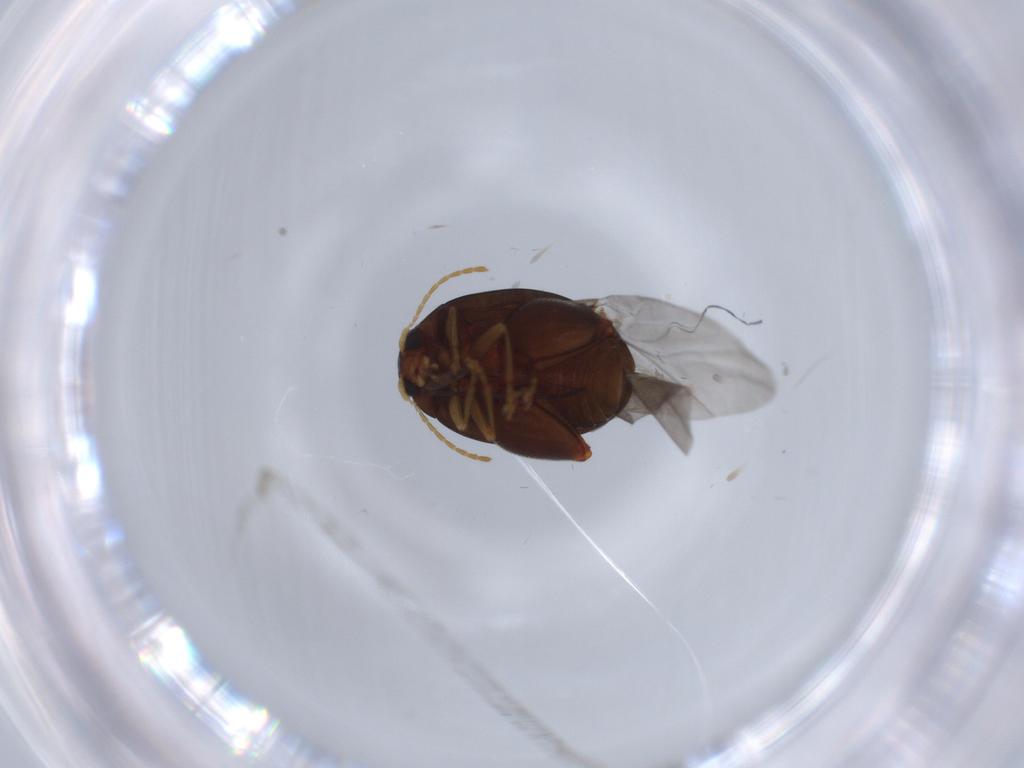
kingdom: Animalia
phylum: Arthropoda
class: Insecta
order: Coleoptera
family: Chrysomelidae
